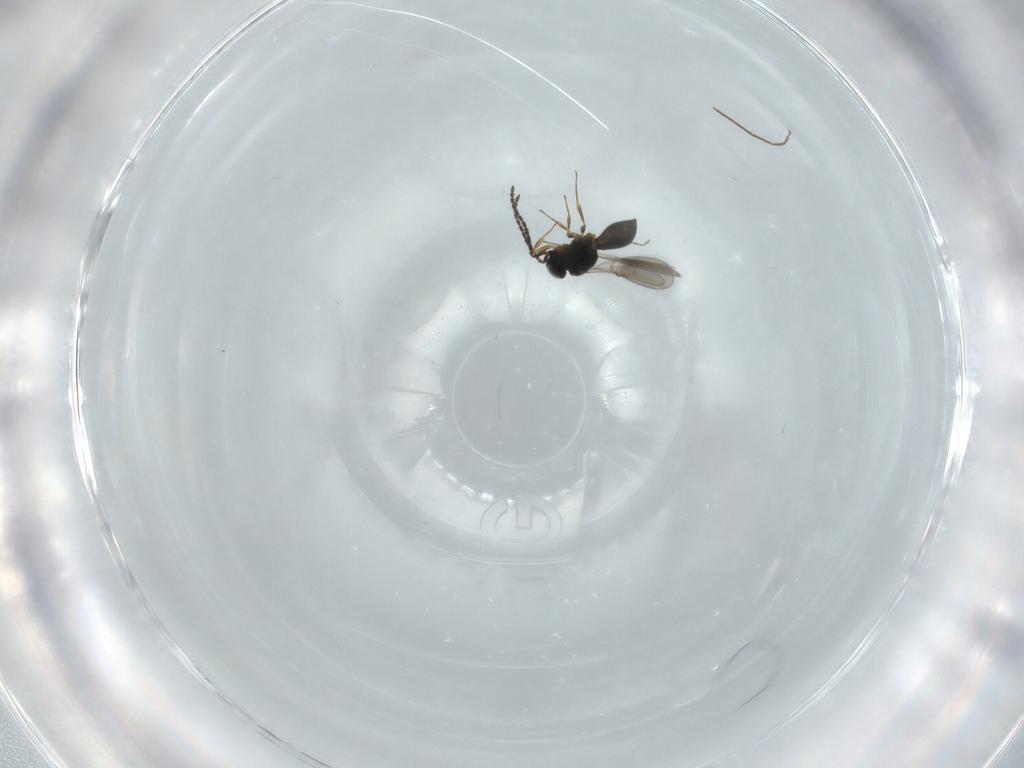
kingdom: Animalia
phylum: Arthropoda
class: Insecta
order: Hymenoptera
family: Scelionidae
